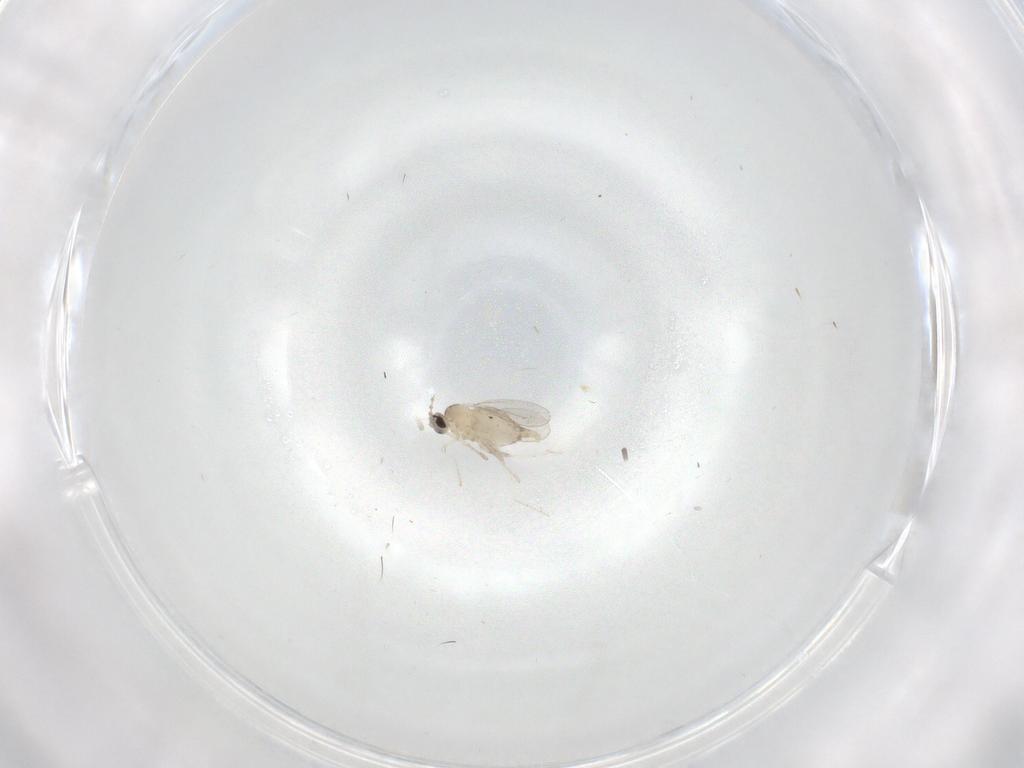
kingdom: Animalia
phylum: Arthropoda
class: Insecta
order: Diptera
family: Cecidomyiidae
